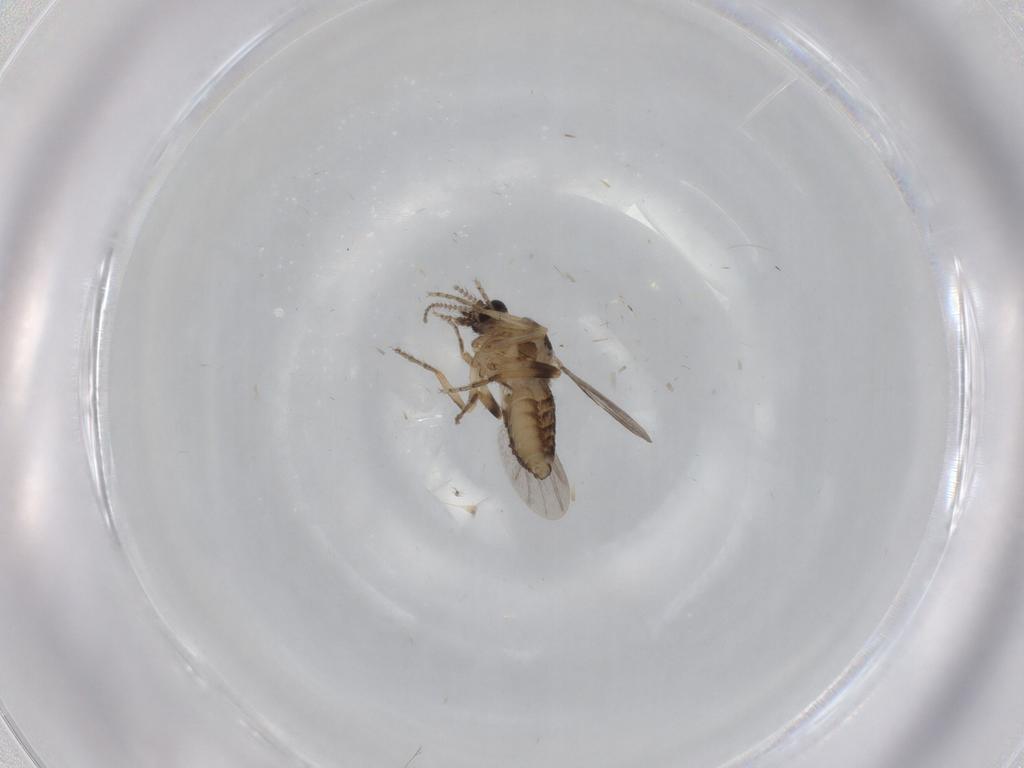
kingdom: Animalia
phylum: Arthropoda
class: Insecta
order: Diptera
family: Ceratopogonidae
